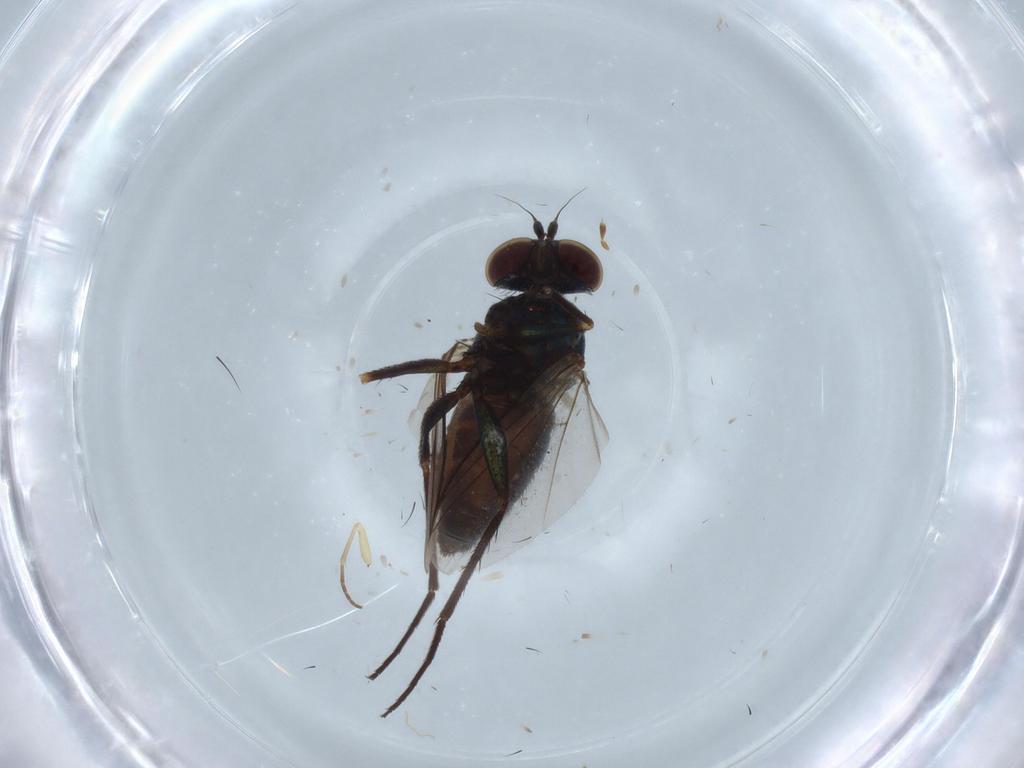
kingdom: Animalia
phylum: Arthropoda
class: Insecta
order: Diptera
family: Dolichopodidae
